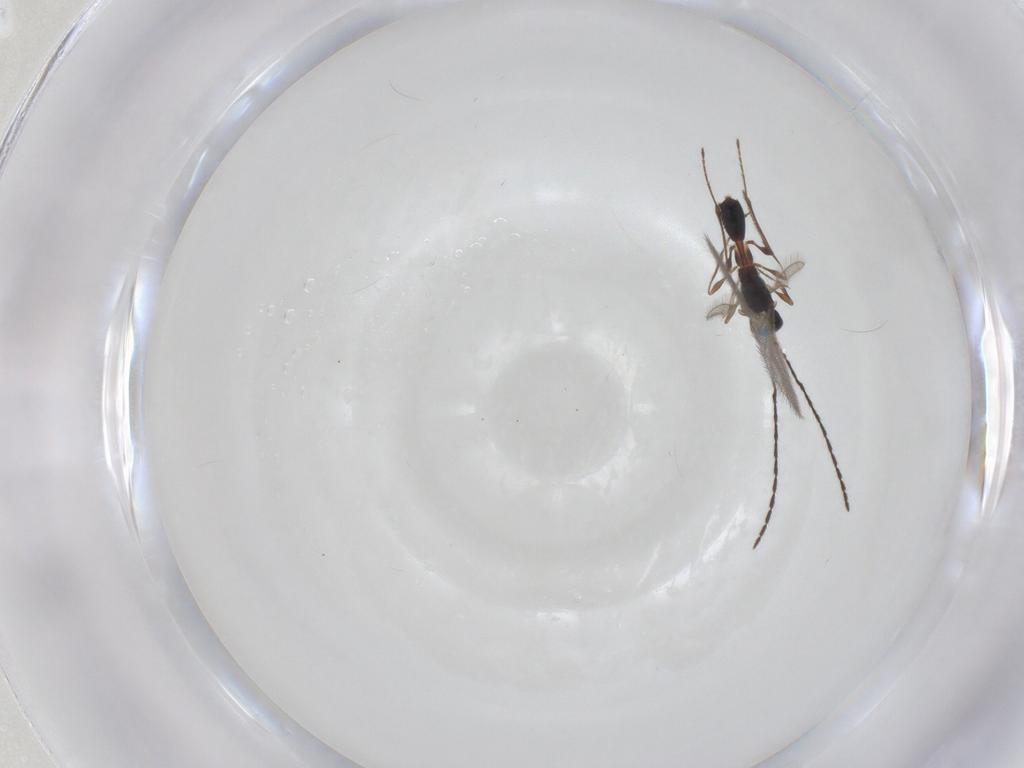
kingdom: Animalia
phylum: Arthropoda
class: Insecta
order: Hymenoptera
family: Diapriidae
